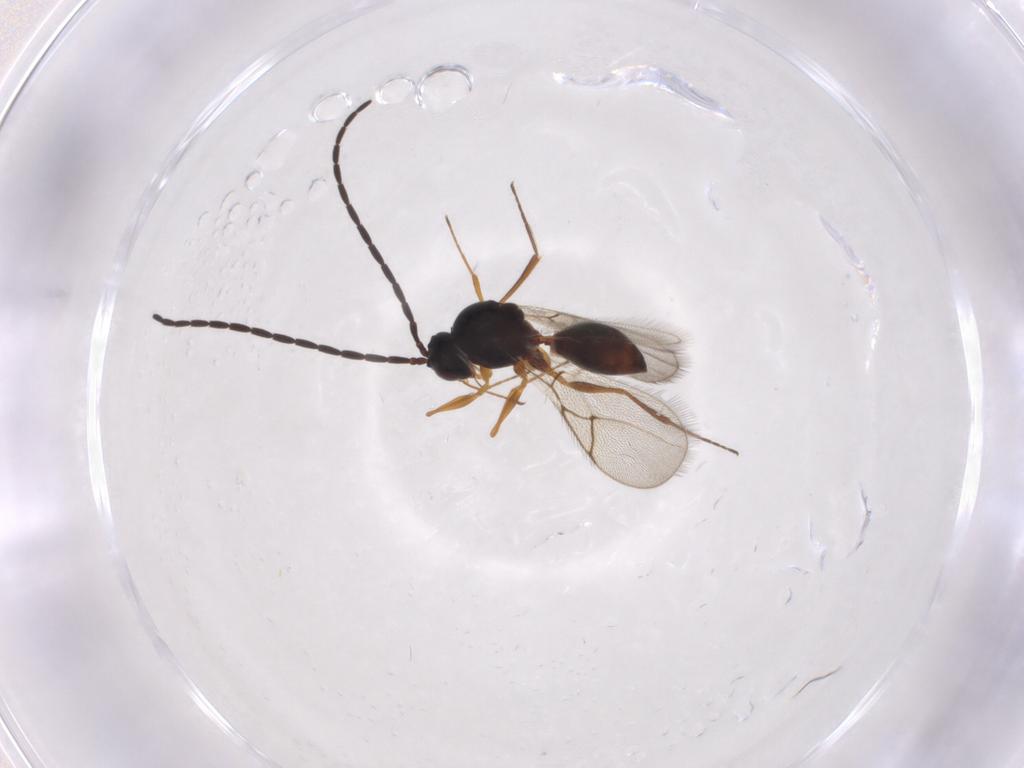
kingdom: Animalia
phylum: Arthropoda
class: Insecta
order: Hymenoptera
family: Figitidae
